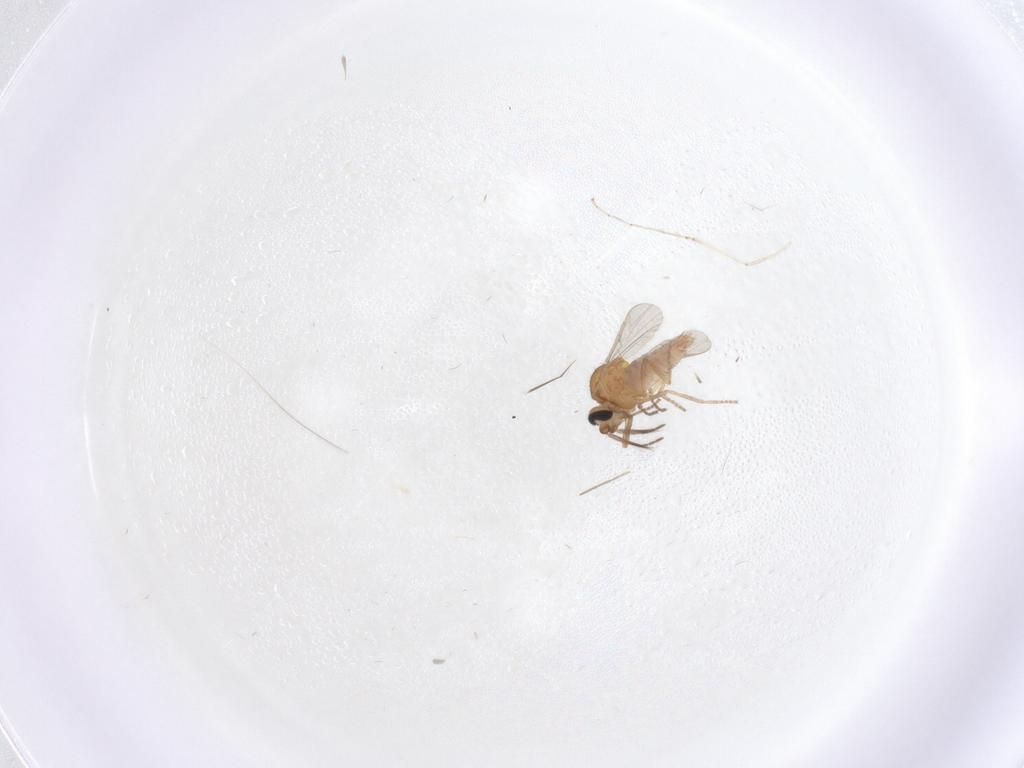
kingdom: Animalia
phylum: Arthropoda
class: Insecta
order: Diptera
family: Ceratopogonidae
